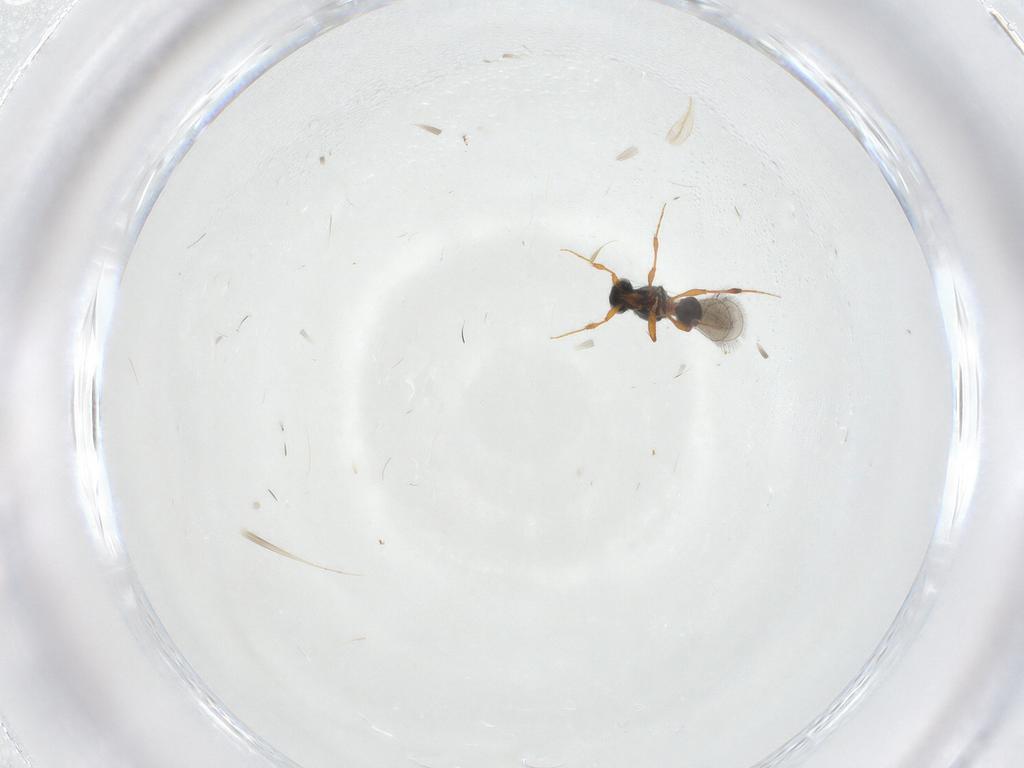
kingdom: Animalia
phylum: Arthropoda
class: Insecta
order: Hymenoptera
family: Platygastridae
